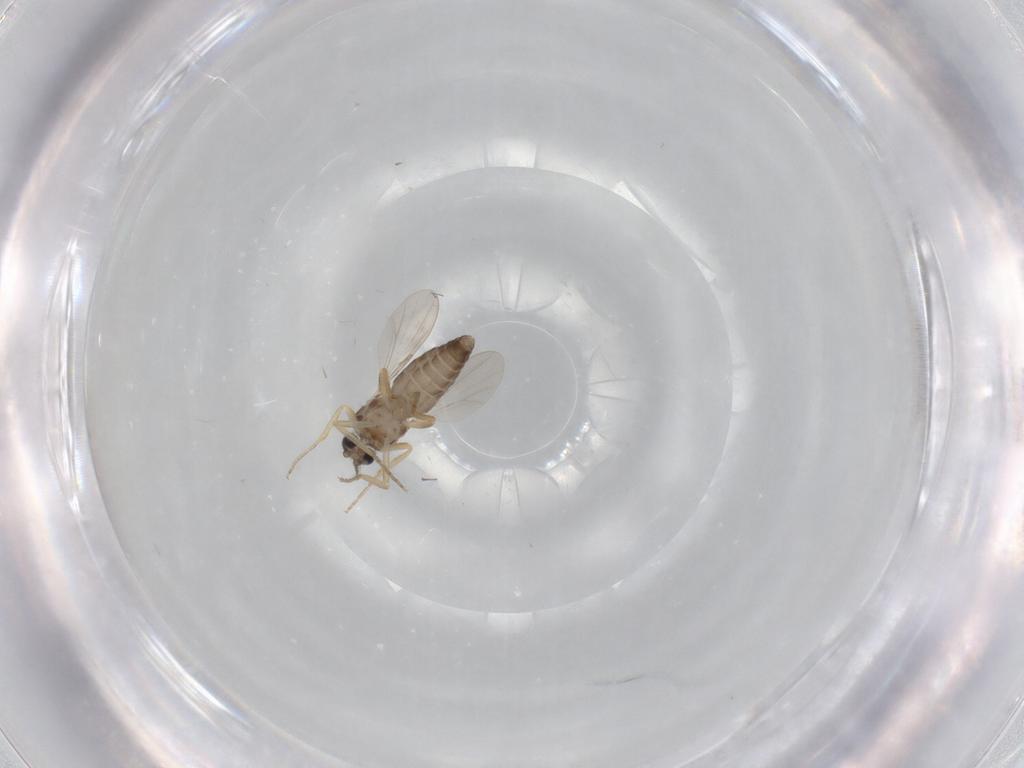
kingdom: Animalia
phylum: Arthropoda
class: Insecta
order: Diptera
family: Ceratopogonidae
